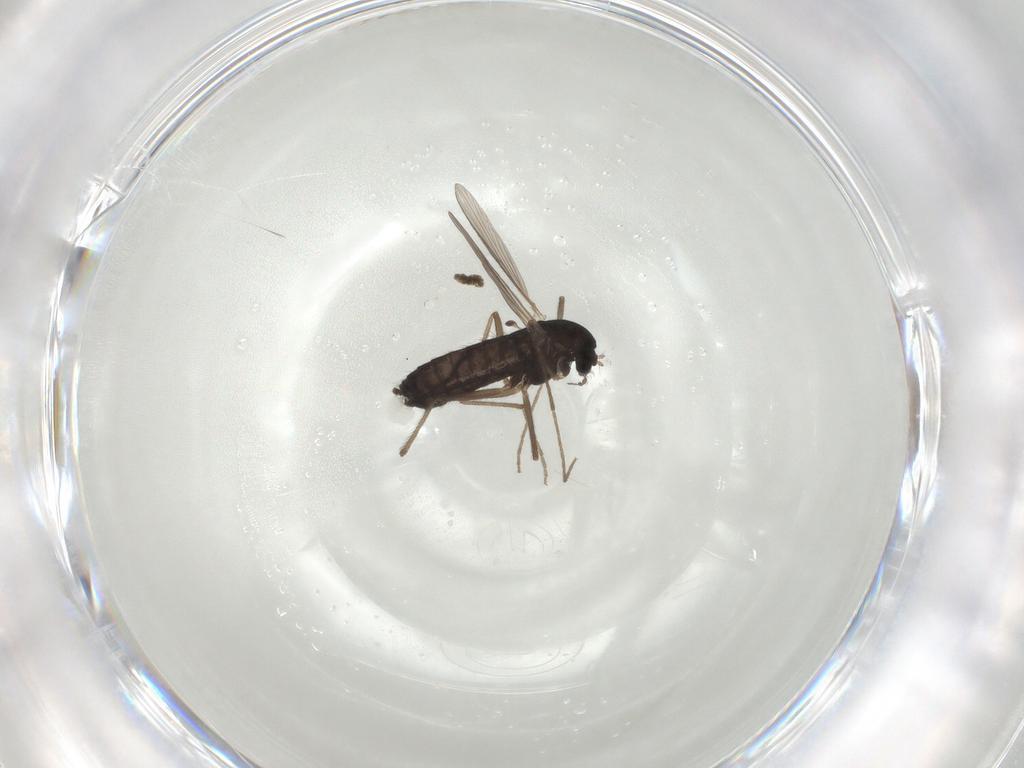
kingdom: Animalia
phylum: Arthropoda
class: Insecta
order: Diptera
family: Chironomidae
